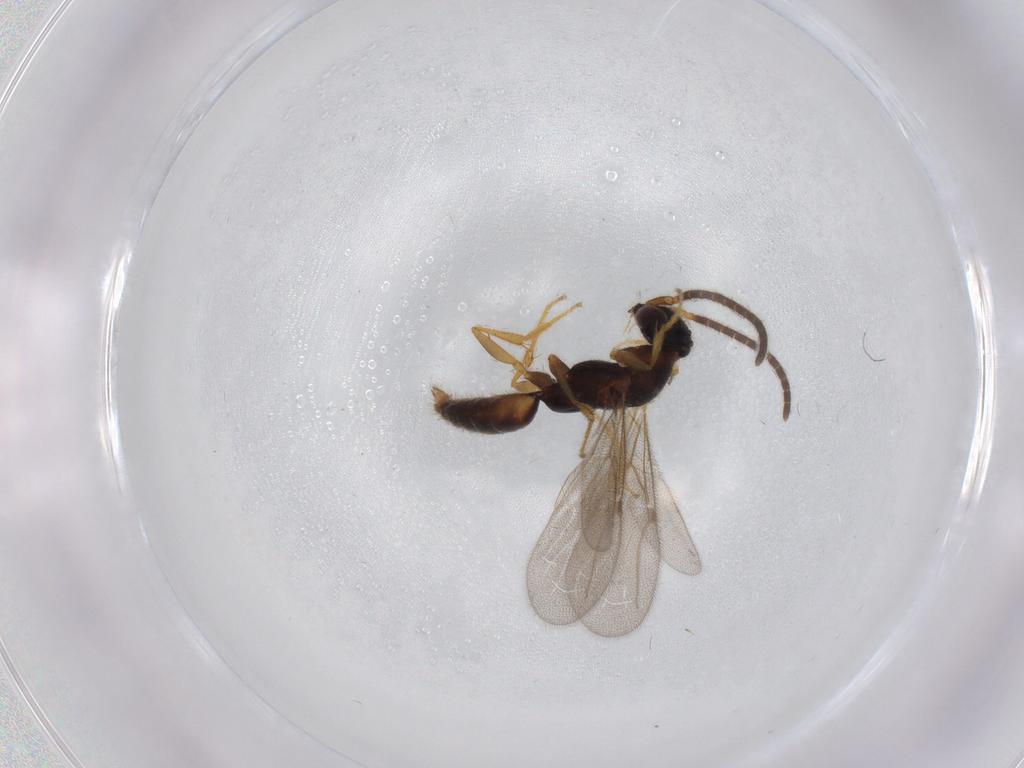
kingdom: Animalia
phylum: Arthropoda
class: Insecta
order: Hymenoptera
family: Bethylidae
